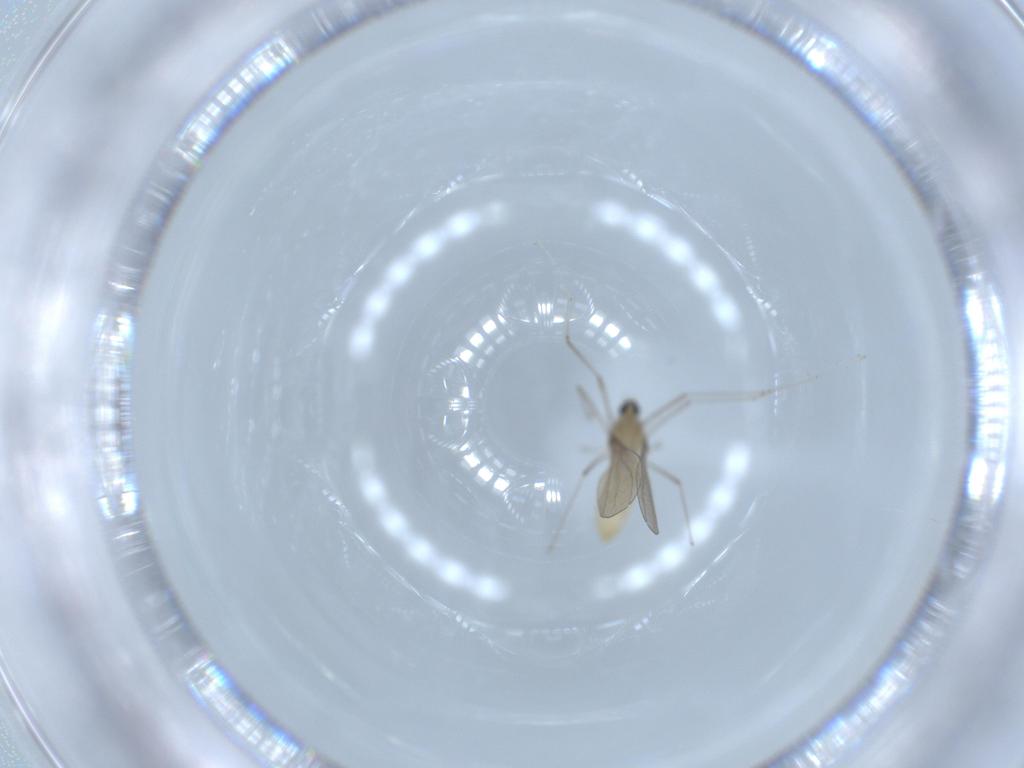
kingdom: Animalia
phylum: Arthropoda
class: Insecta
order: Diptera
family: Cecidomyiidae
